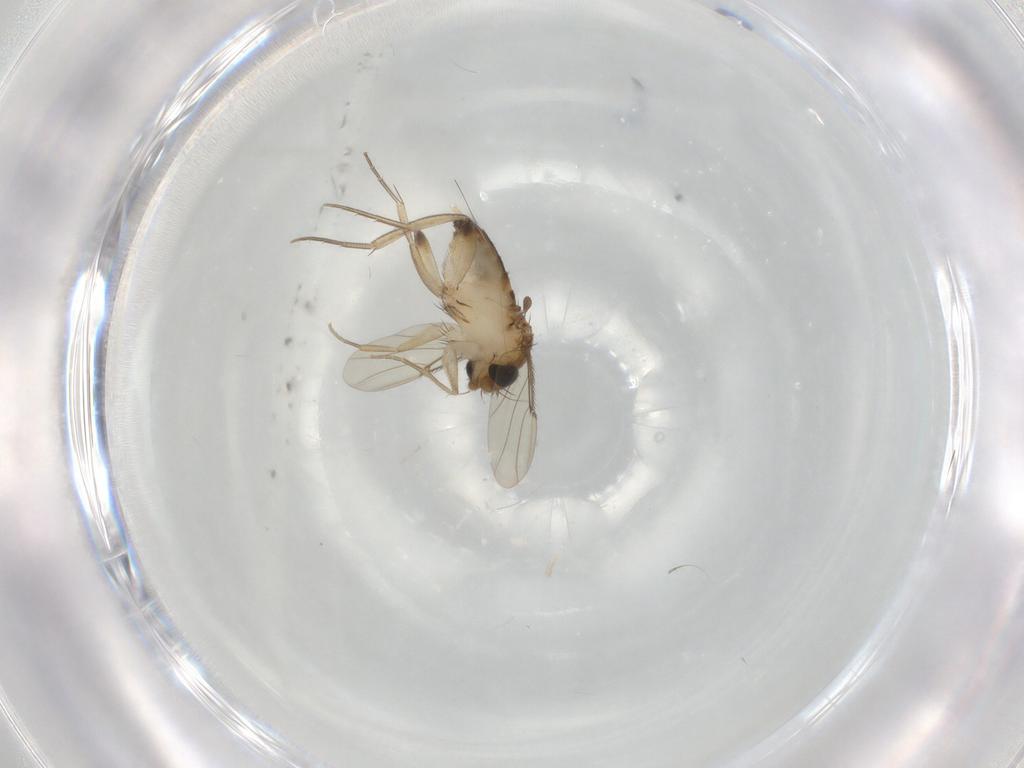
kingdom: Animalia
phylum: Arthropoda
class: Insecta
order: Diptera
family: Phoridae
